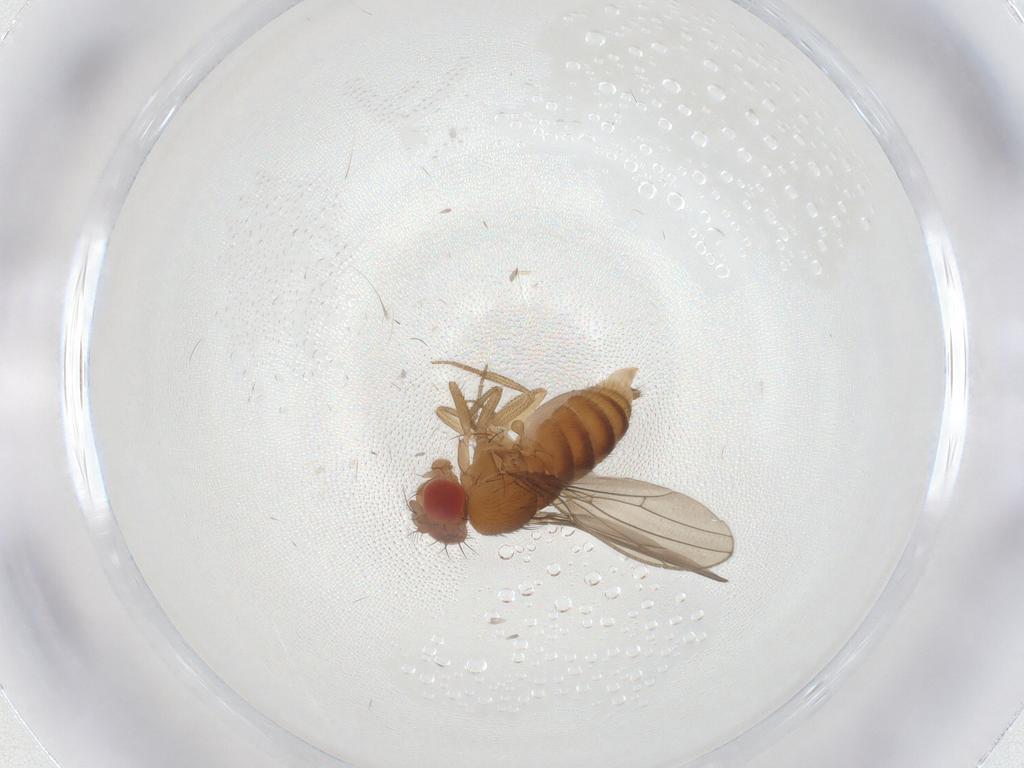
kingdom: Animalia
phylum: Arthropoda
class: Insecta
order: Diptera
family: Drosophilidae
